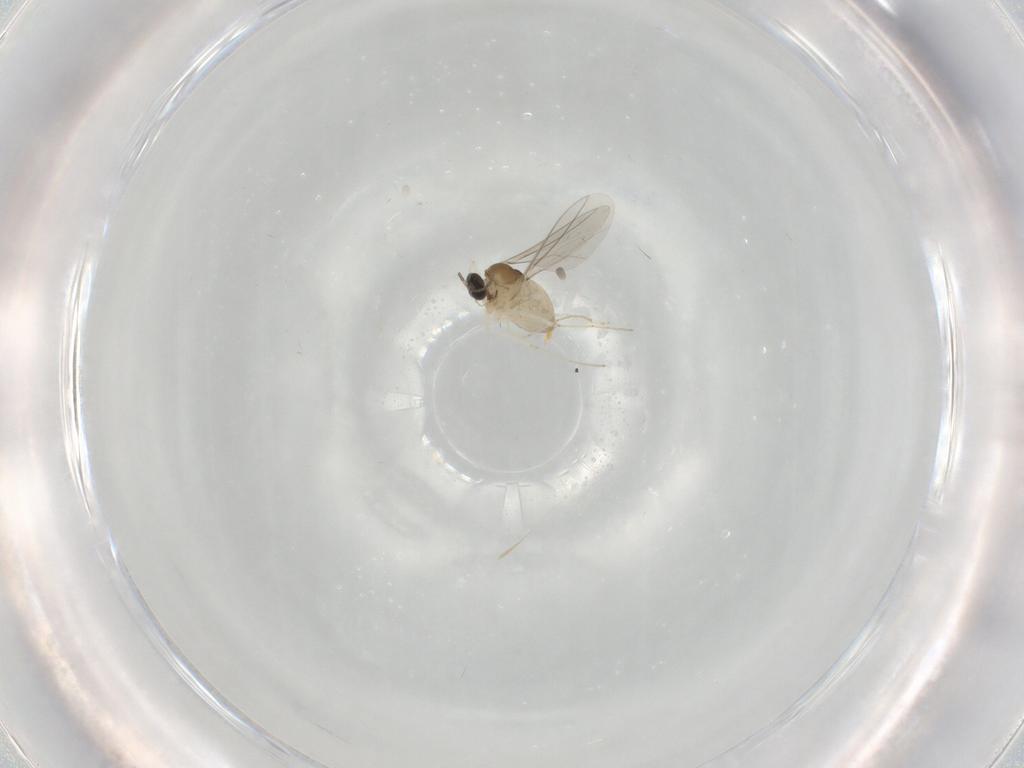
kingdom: Animalia
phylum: Arthropoda
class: Insecta
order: Diptera
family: Cecidomyiidae
